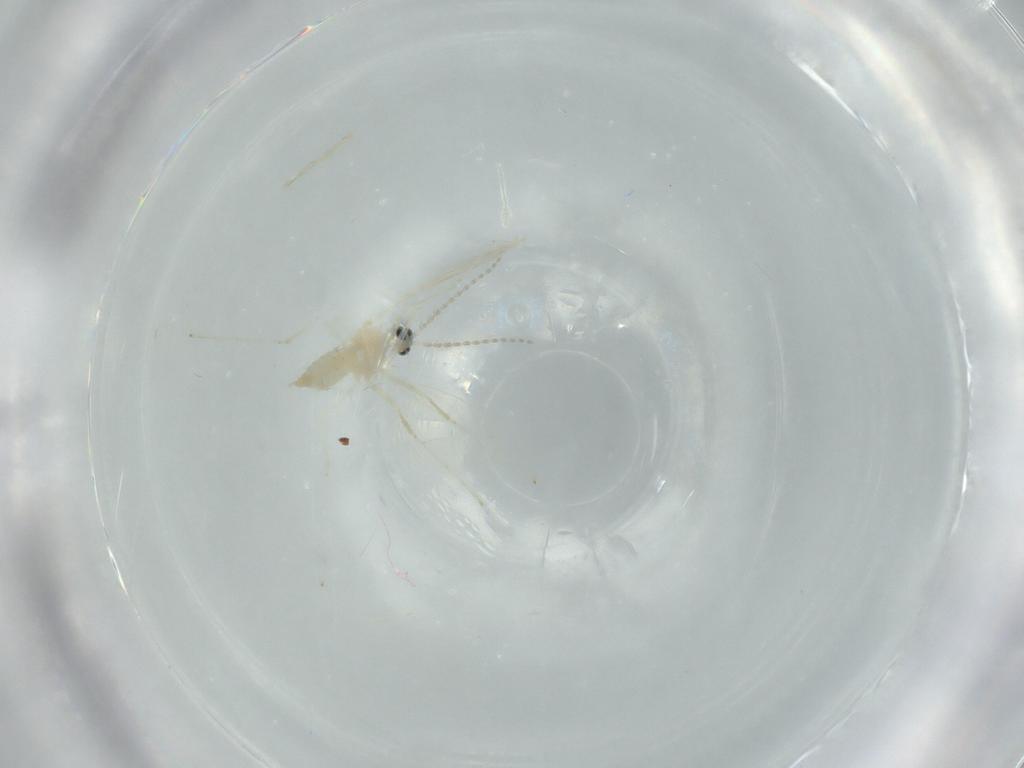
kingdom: Animalia
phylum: Arthropoda
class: Insecta
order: Diptera
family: Cecidomyiidae
